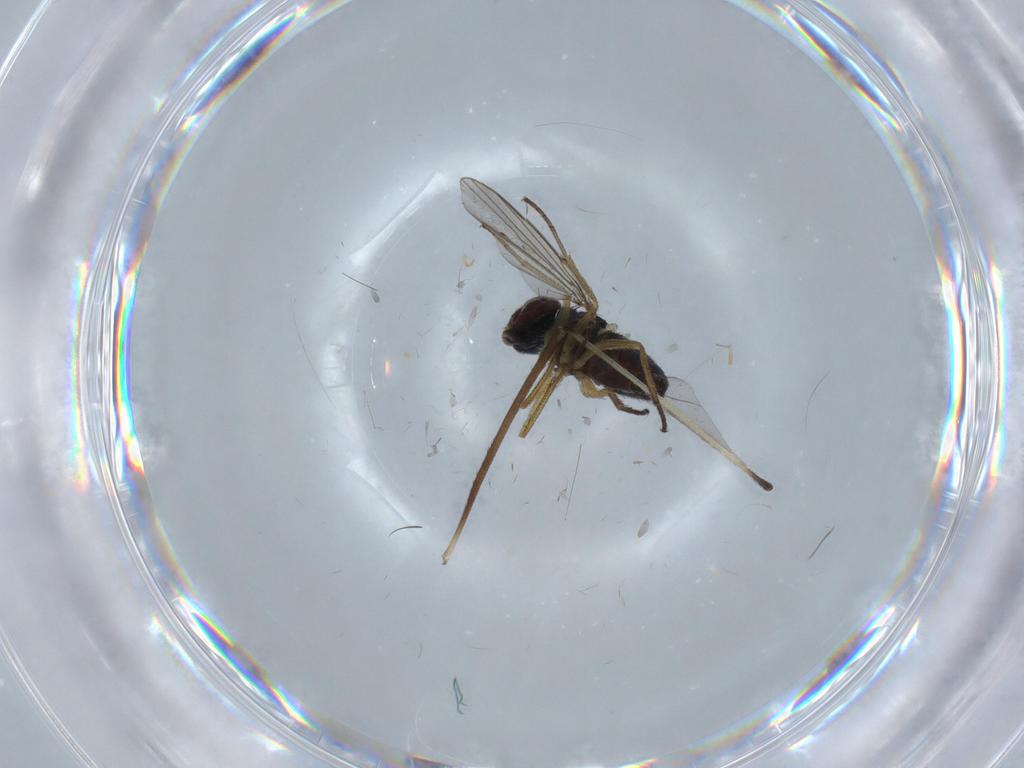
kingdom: Animalia
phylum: Arthropoda
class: Insecta
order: Diptera
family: Limoniidae
